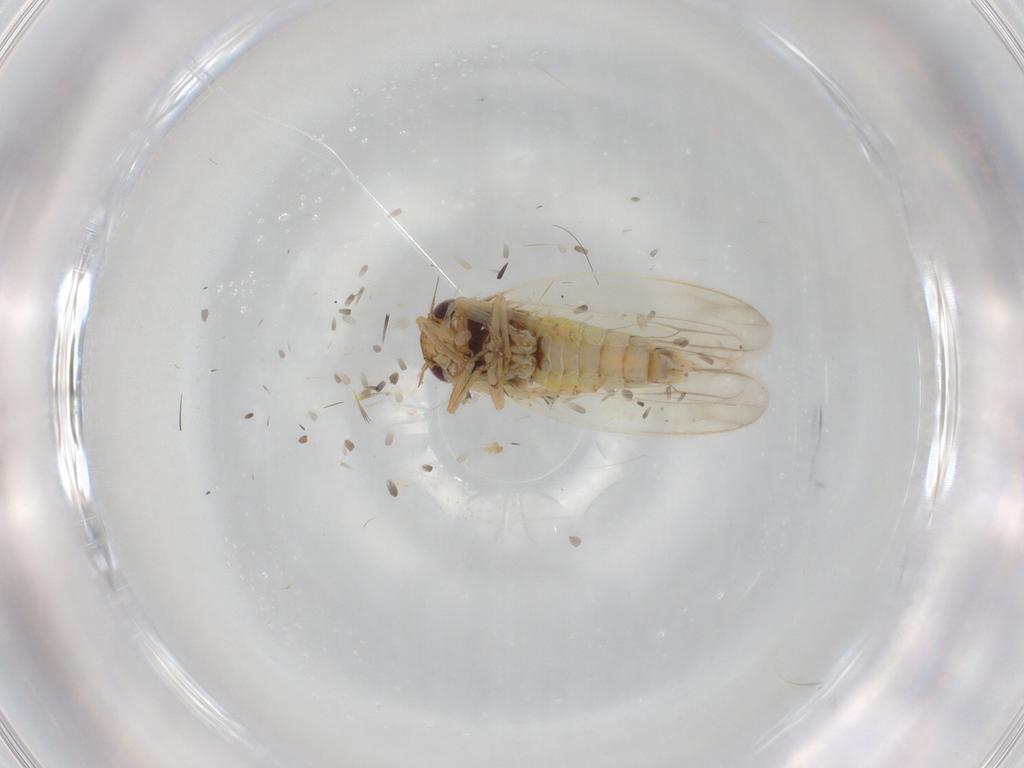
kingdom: Animalia
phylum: Arthropoda
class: Insecta
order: Hemiptera
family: Cicadellidae
